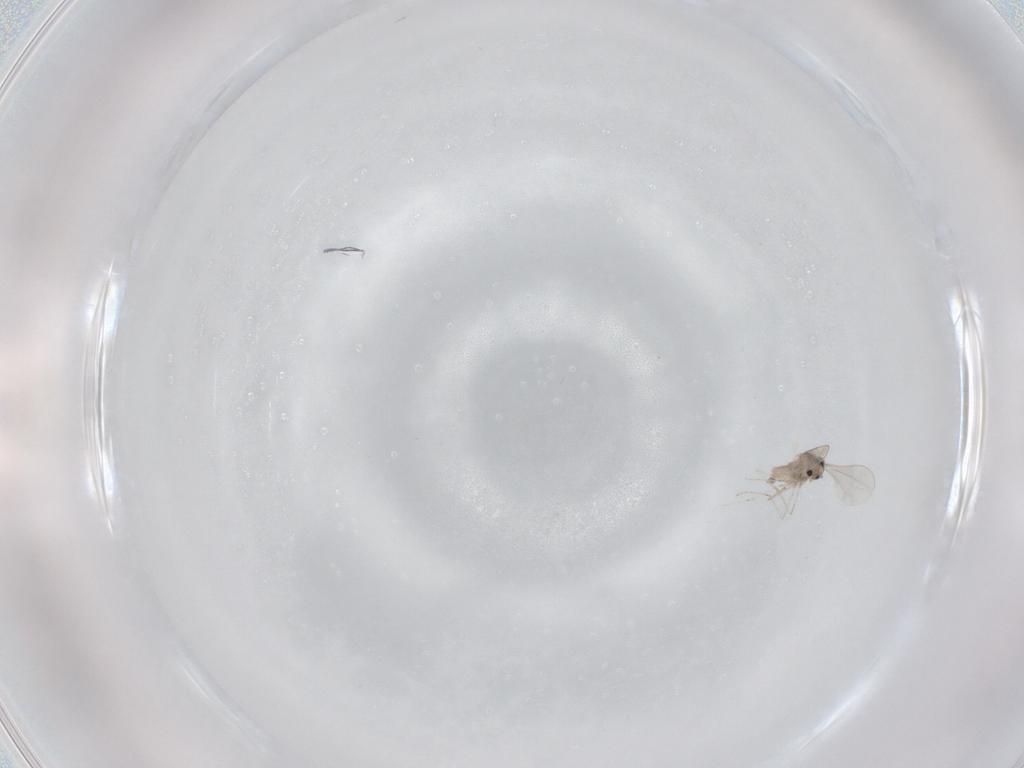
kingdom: Animalia
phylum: Arthropoda
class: Insecta
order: Diptera
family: Cecidomyiidae
